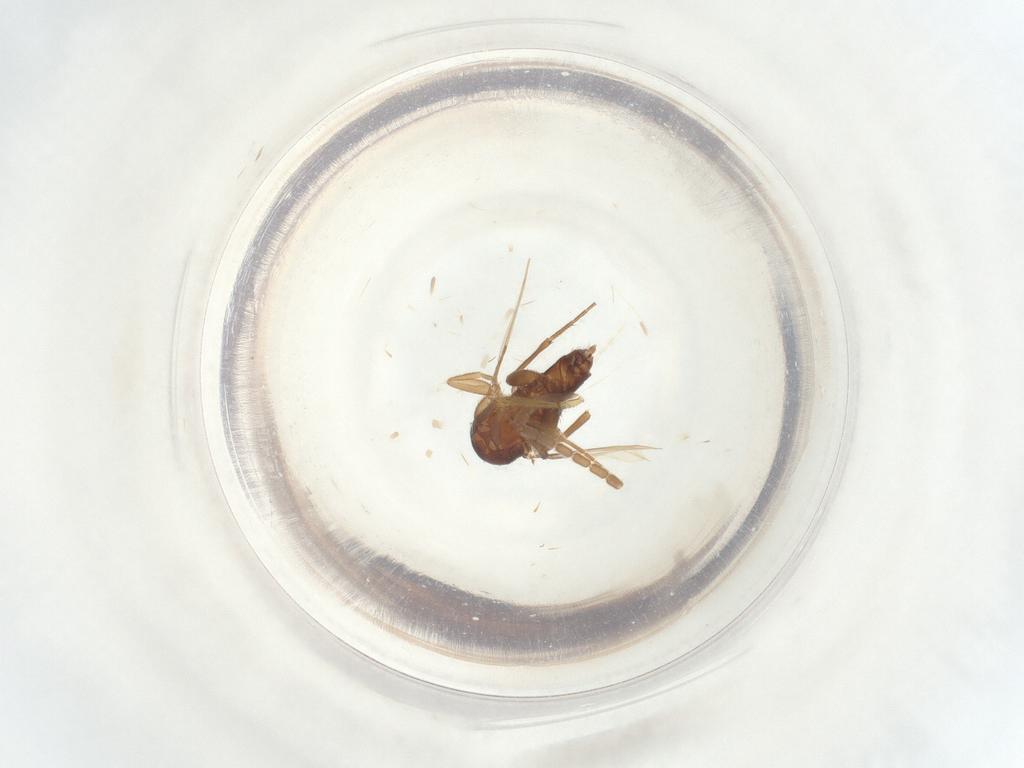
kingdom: Animalia
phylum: Arthropoda
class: Insecta
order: Diptera
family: Phoridae
